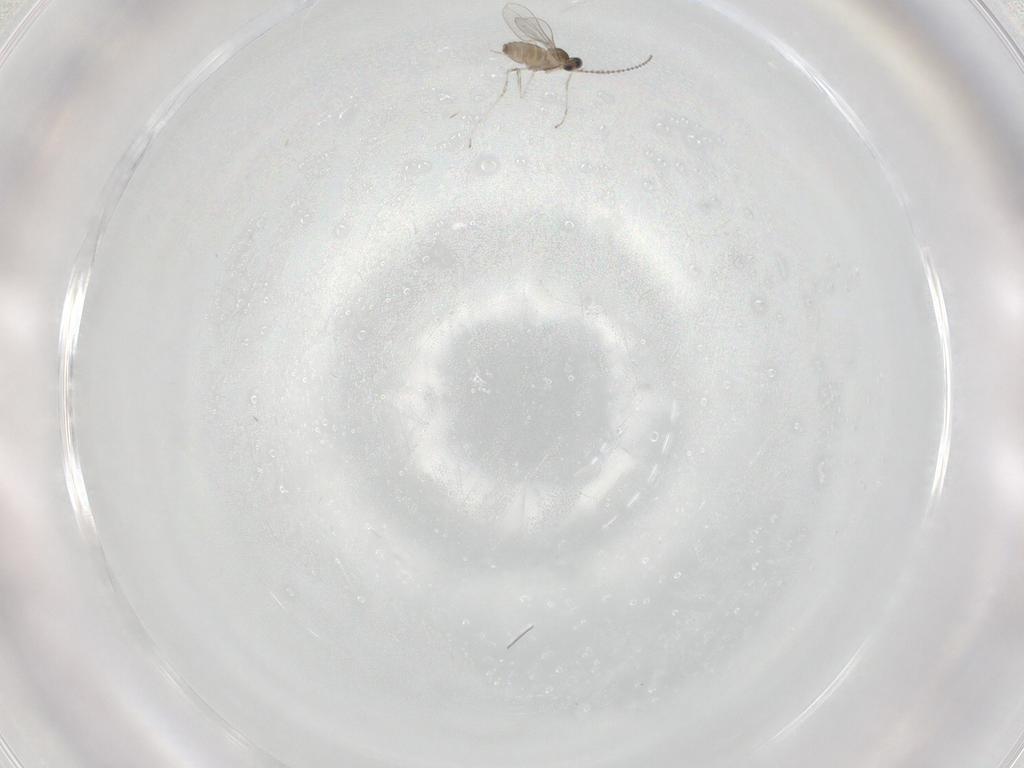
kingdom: Animalia
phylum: Arthropoda
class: Insecta
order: Diptera
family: Cecidomyiidae
